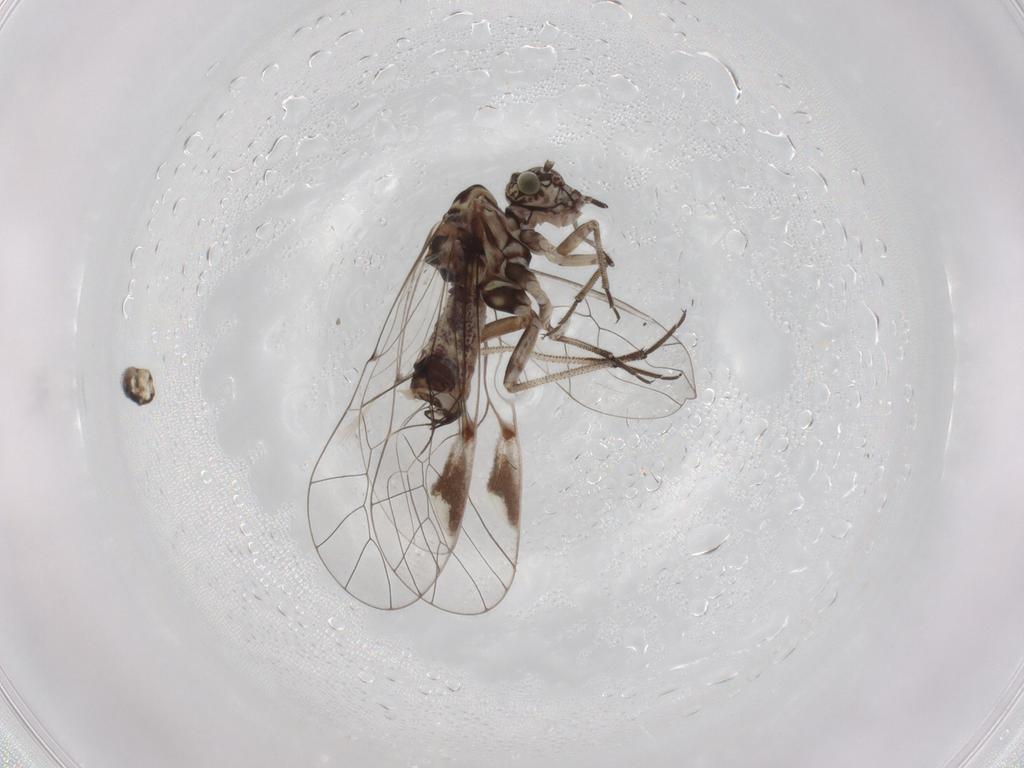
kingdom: Animalia
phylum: Arthropoda
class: Insecta
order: Psocodea
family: Psocidae
